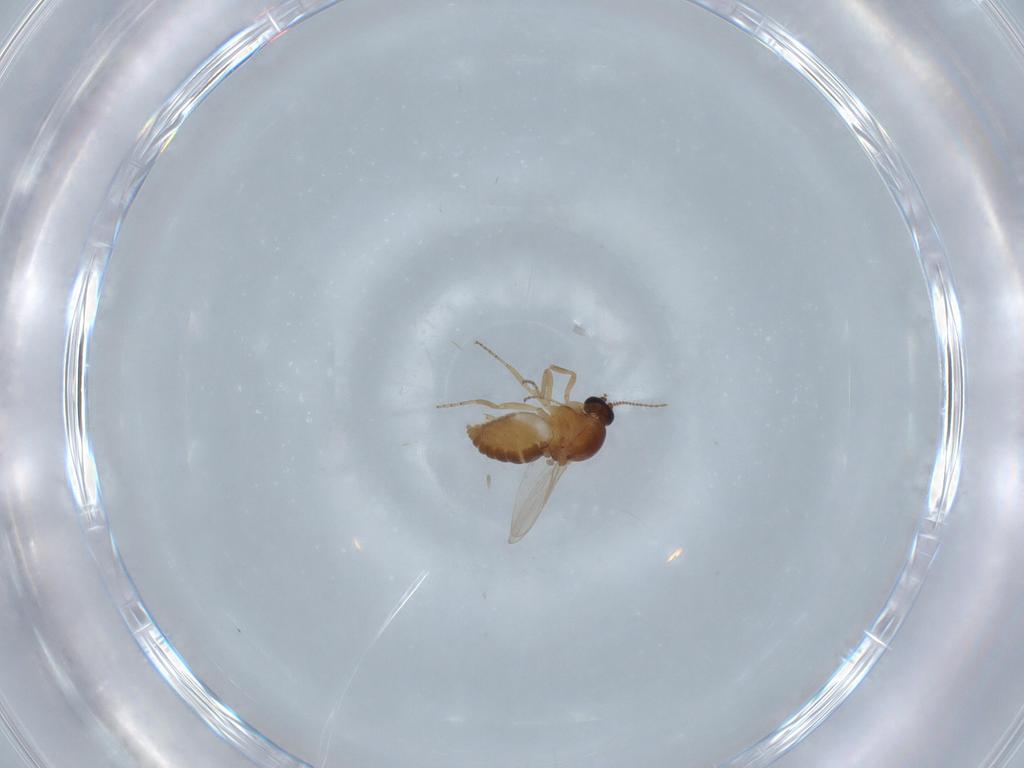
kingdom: Animalia
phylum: Arthropoda
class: Insecta
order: Diptera
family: Ceratopogonidae
